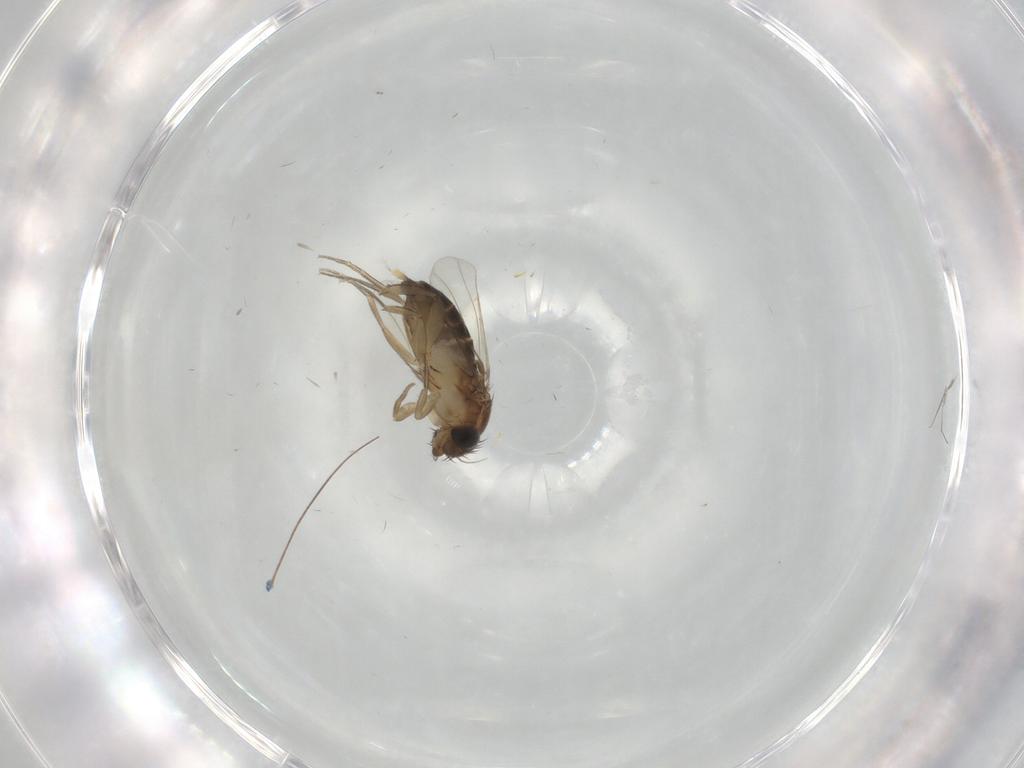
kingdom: Animalia
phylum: Arthropoda
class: Insecta
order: Diptera
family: Phoridae
